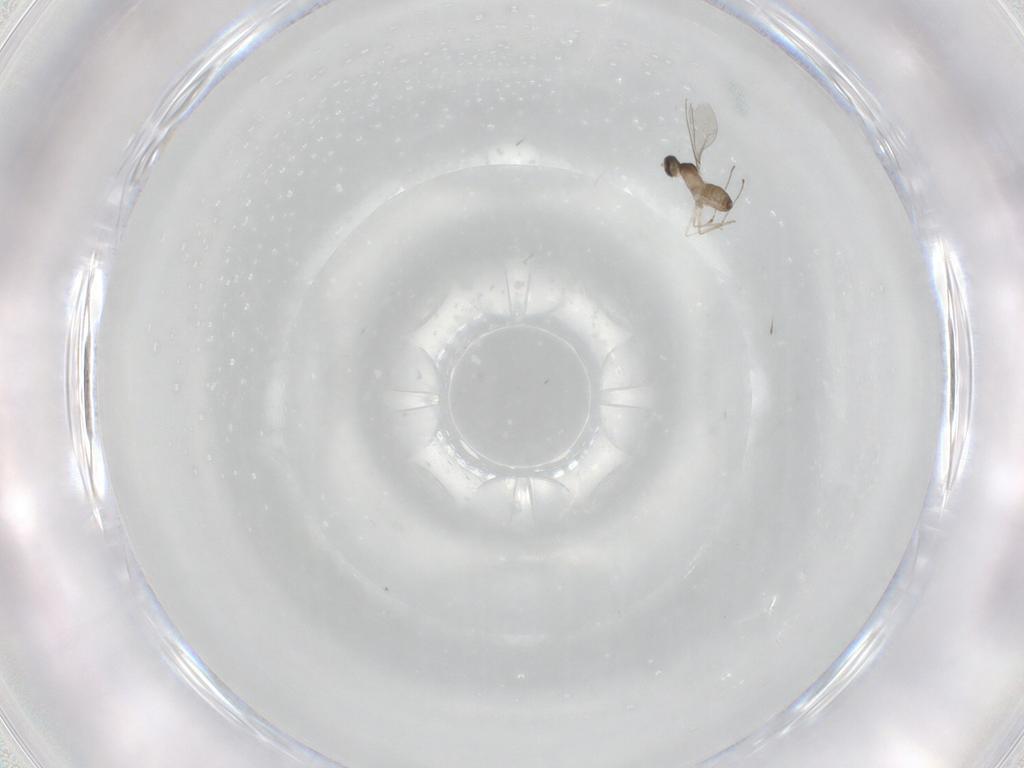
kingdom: Animalia
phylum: Arthropoda
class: Insecta
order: Diptera
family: Cecidomyiidae
